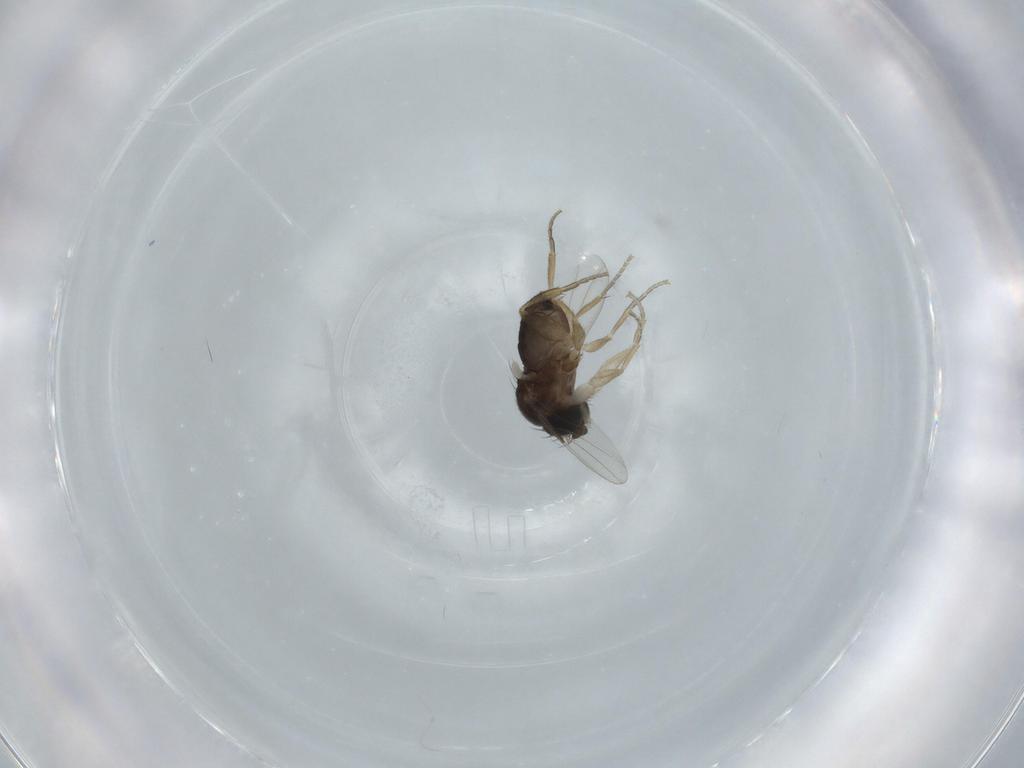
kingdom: Animalia
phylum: Arthropoda
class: Insecta
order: Diptera
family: Phoridae
